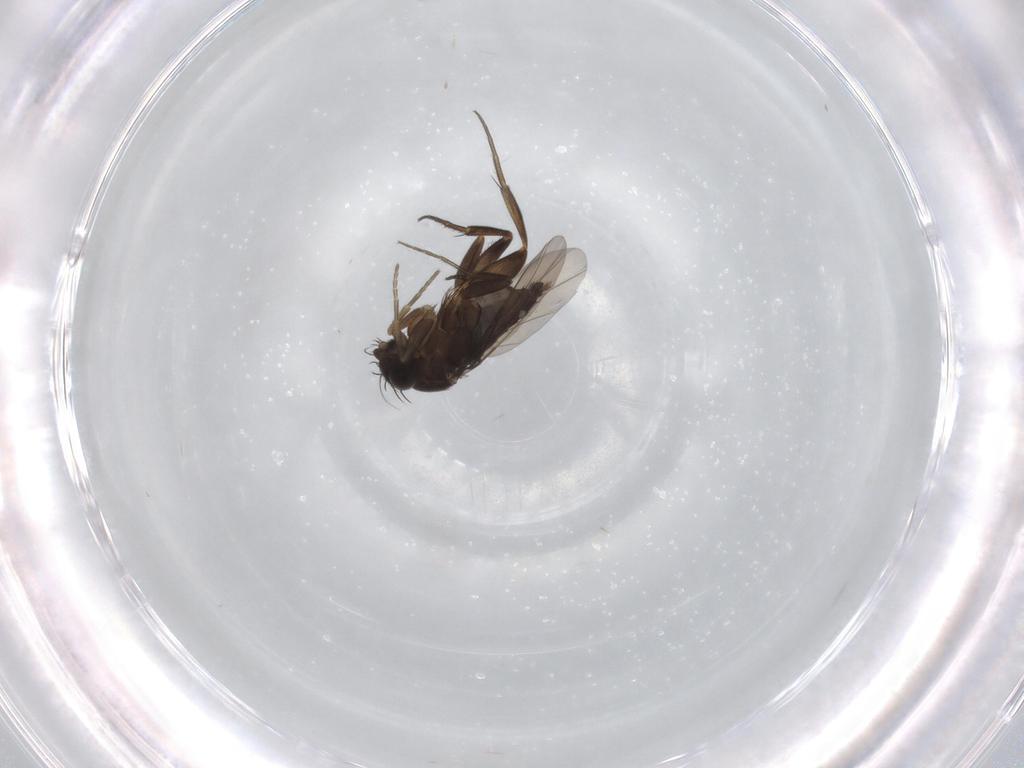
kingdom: Animalia
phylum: Arthropoda
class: Insecta
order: Diptera
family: Phoridae
